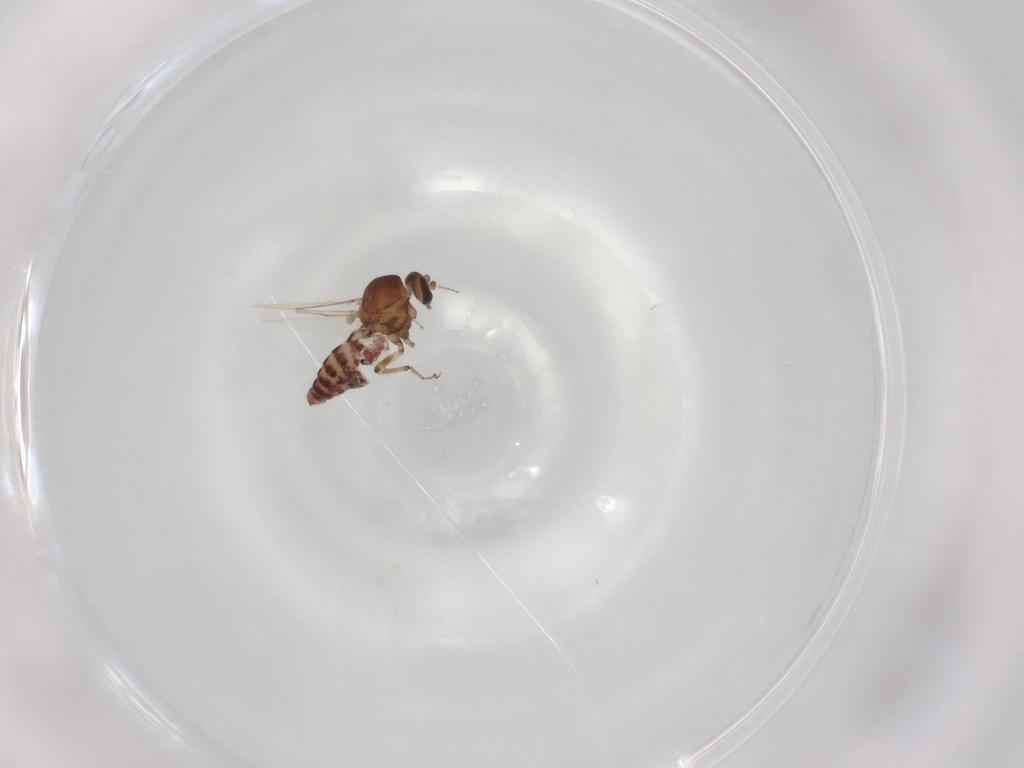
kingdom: Animalia
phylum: Arthropoda
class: Insecta
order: Diptera
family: Ceratopogonidae
